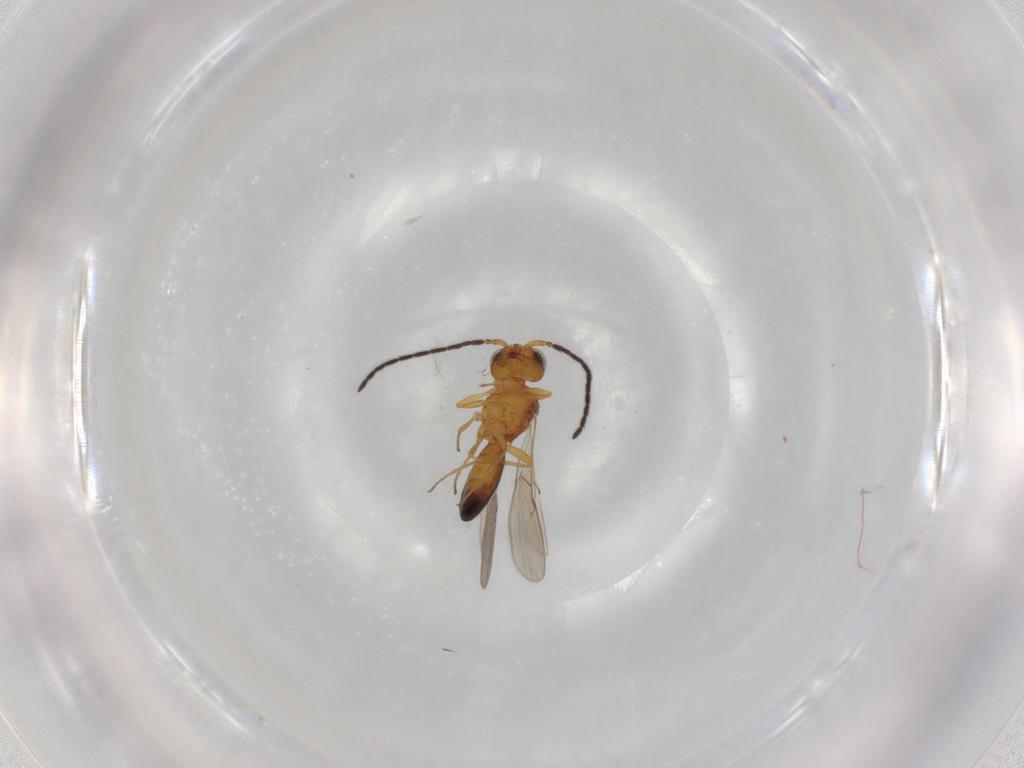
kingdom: Animalia
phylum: Arthropoda
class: Insecta
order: Hymenoptera
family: Scelionidae
